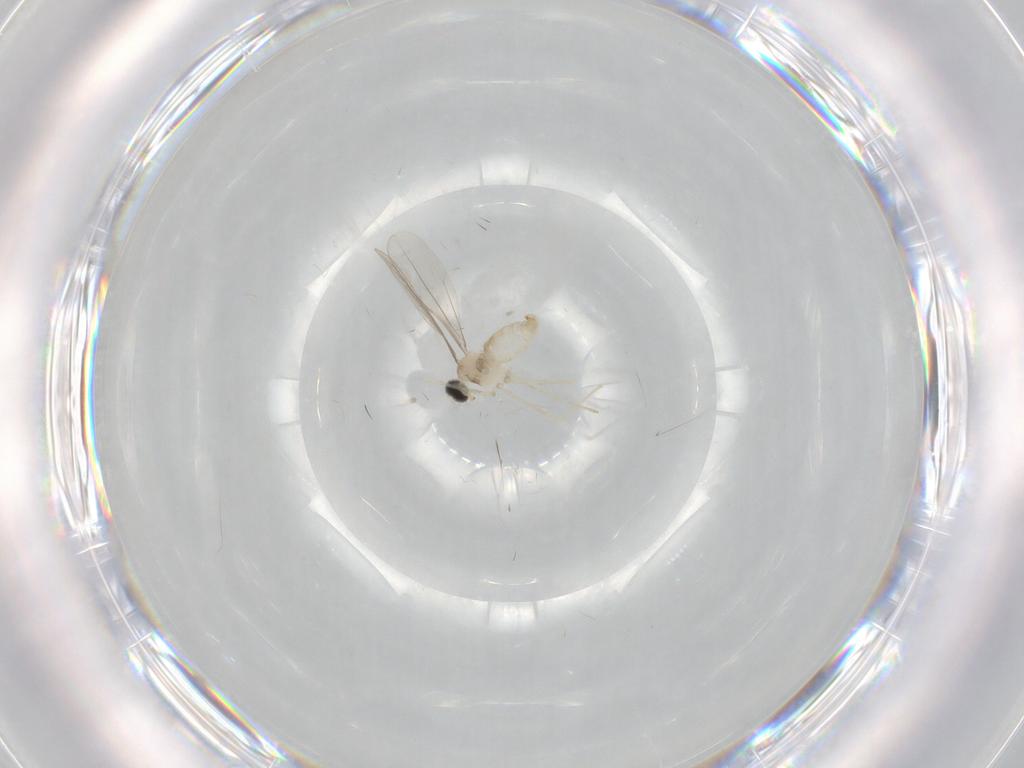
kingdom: Animalia
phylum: Arthropoda
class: Insecta
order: Diptera
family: Cecidomyiidae
